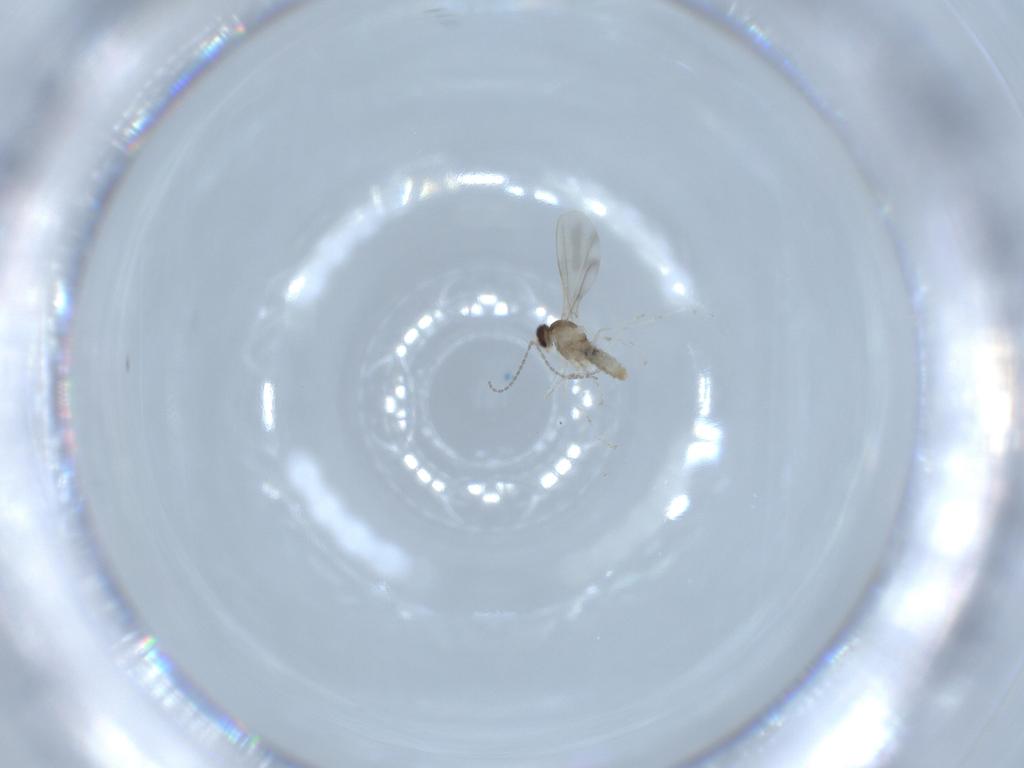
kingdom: Animalia
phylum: Arthropoda
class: Insecta
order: Diptera
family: Cecidomyiidae
